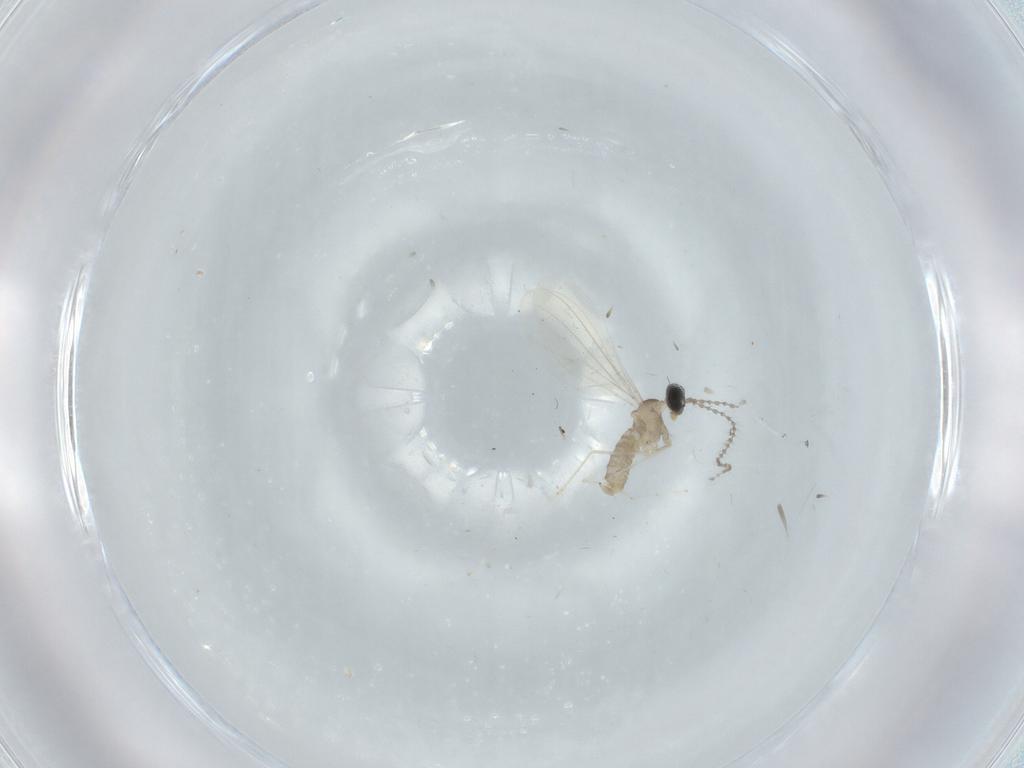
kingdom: Animalia
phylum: Arthropoda
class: Insecta
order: Diptera
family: Cecidomyiidae
